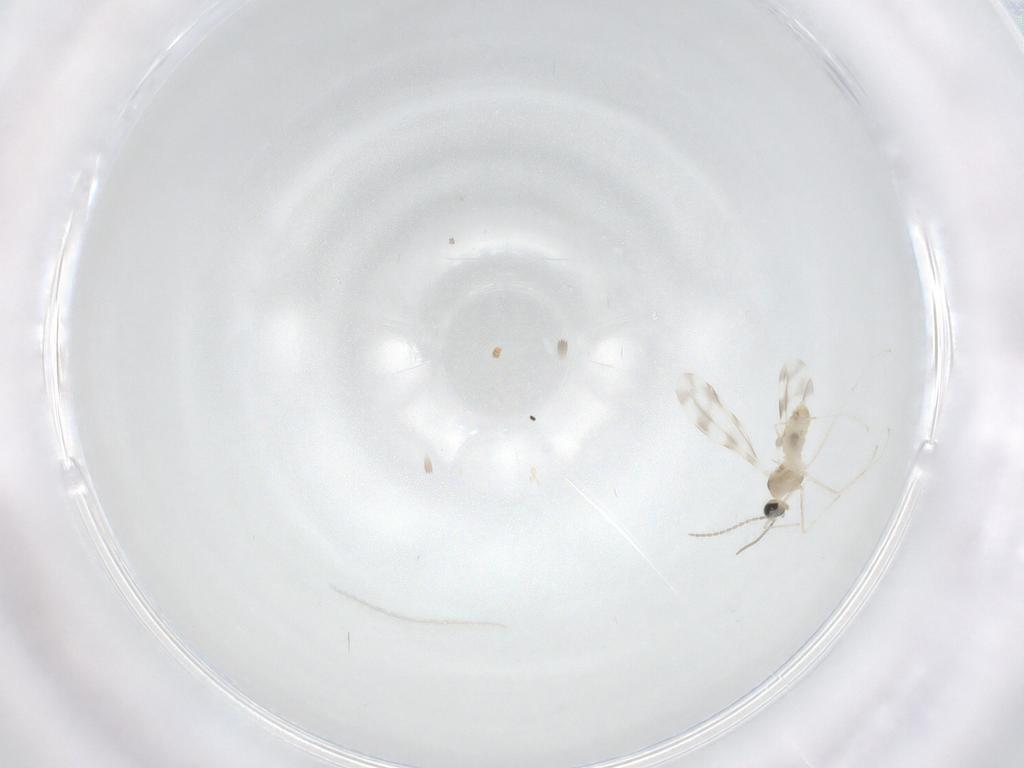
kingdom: Animalia
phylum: Arthropoda
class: Insecta
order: Diptera
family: Cecidomyiidae
